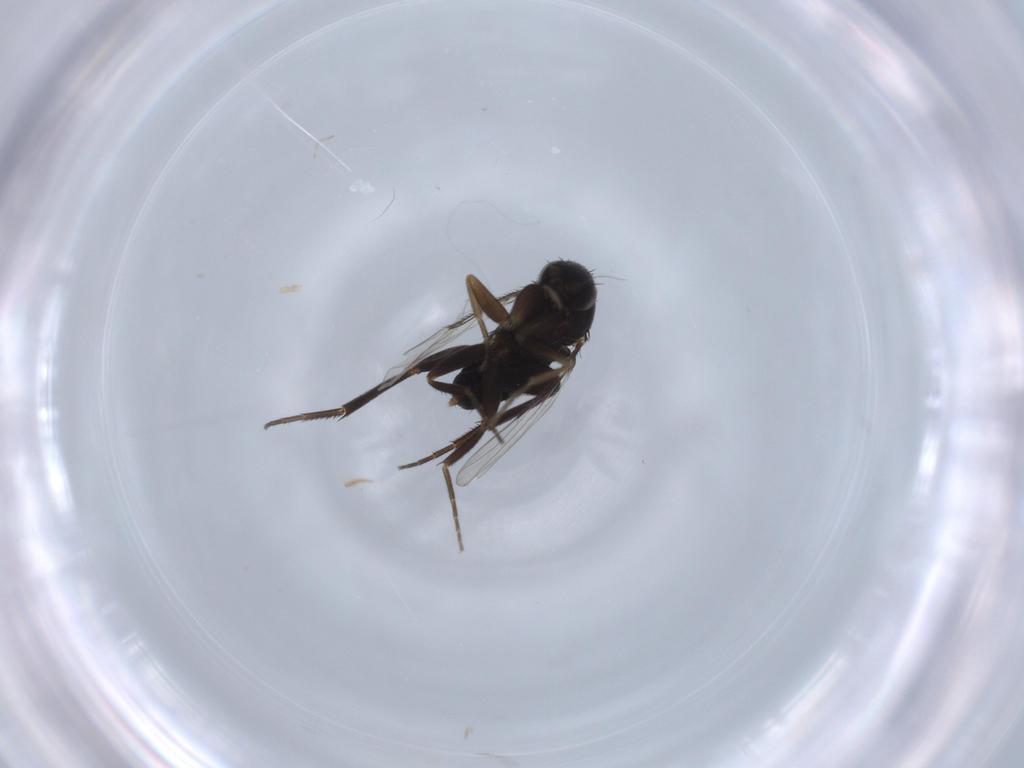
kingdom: Animalia
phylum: Arthropoda
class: Insecta
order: Diptera
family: Phoridae
